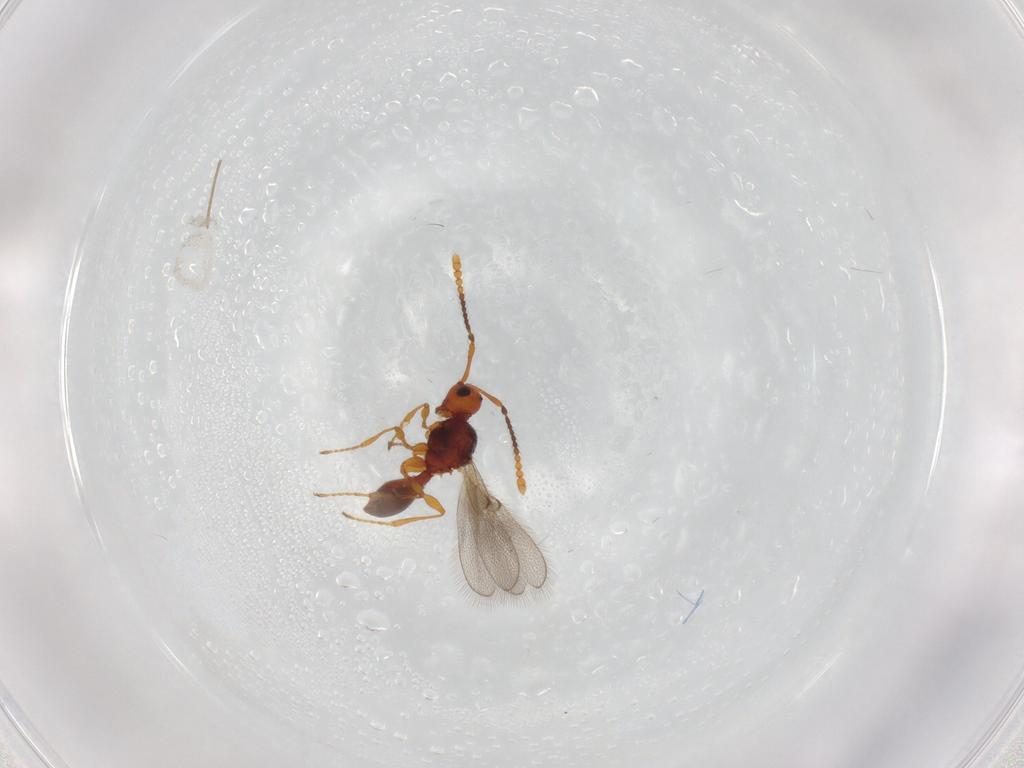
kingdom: Animalia
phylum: Arthropoda
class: Insecta
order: Hymenoptera
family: Diapriidae
